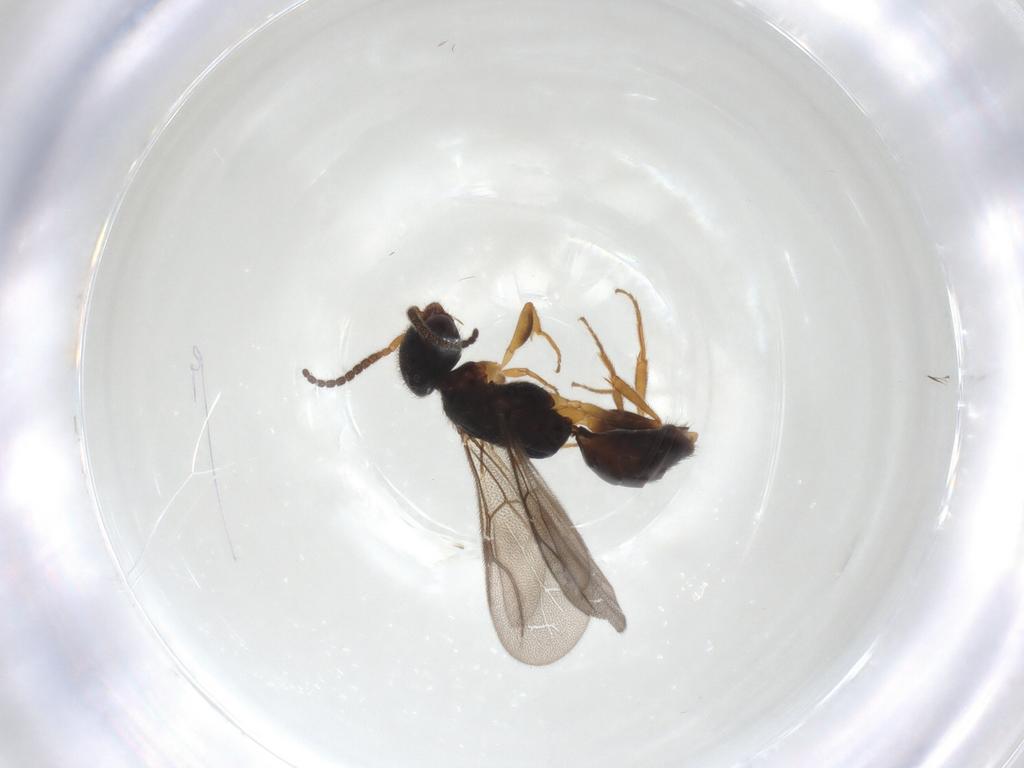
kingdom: Animalia
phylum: Arthropoda
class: Insecta
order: Hymenoptera
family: Bethylidae
